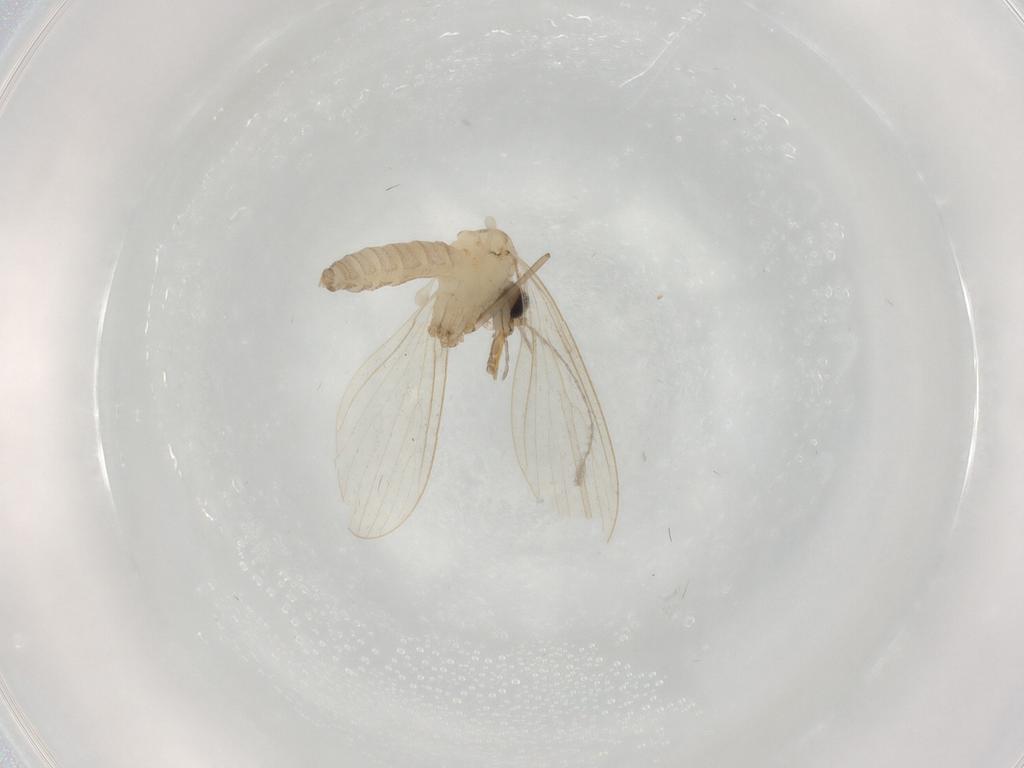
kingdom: Animalia
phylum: Arthropoda
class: Insecta
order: Diptera
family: Psychodidae
